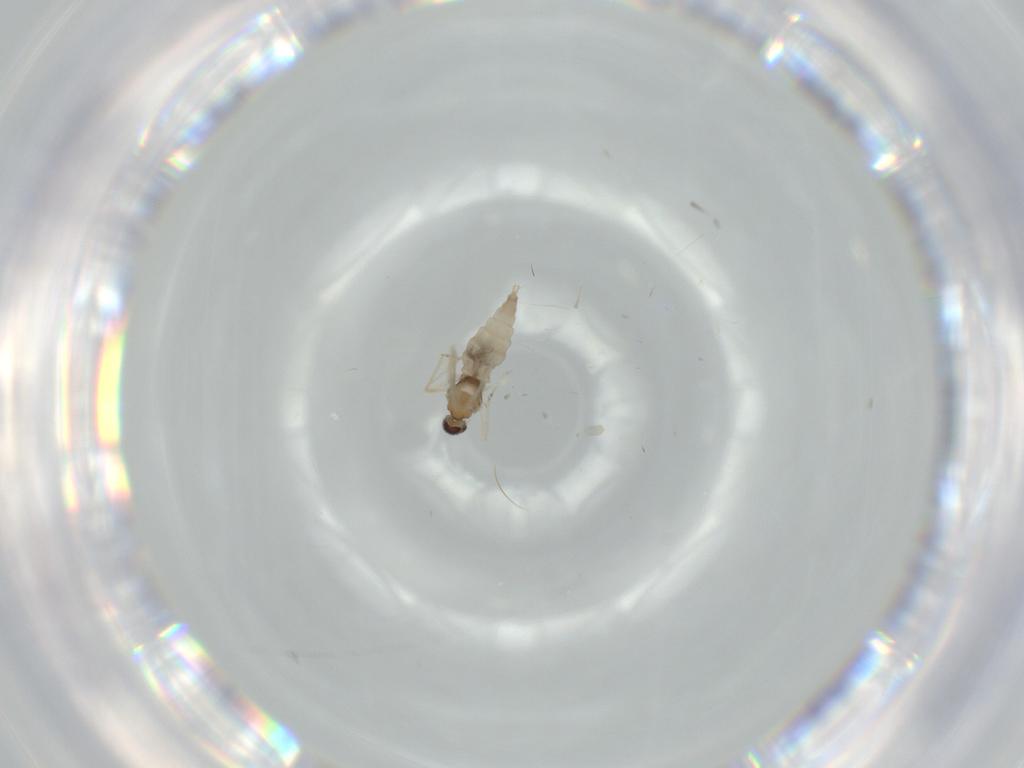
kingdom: Animalia
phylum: Arthropoda
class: Insecta
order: Diptera
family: Cecidomyiidae
